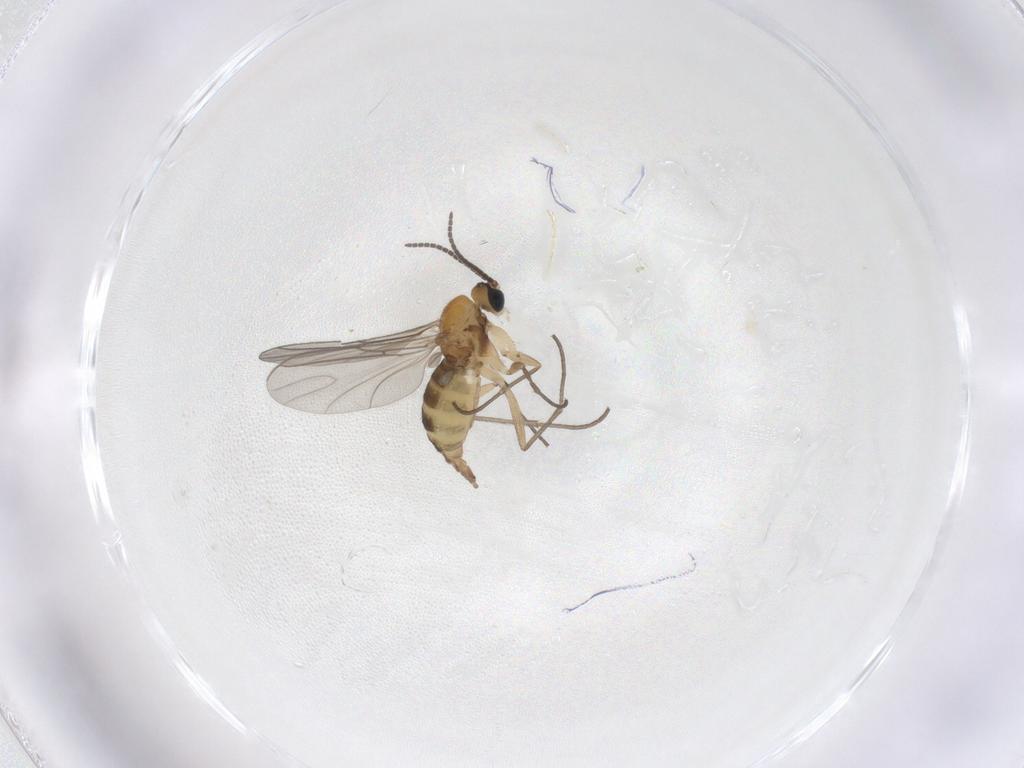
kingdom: Animalia
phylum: Arthropoda
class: Insecta
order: Diptera
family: Sciaridae
